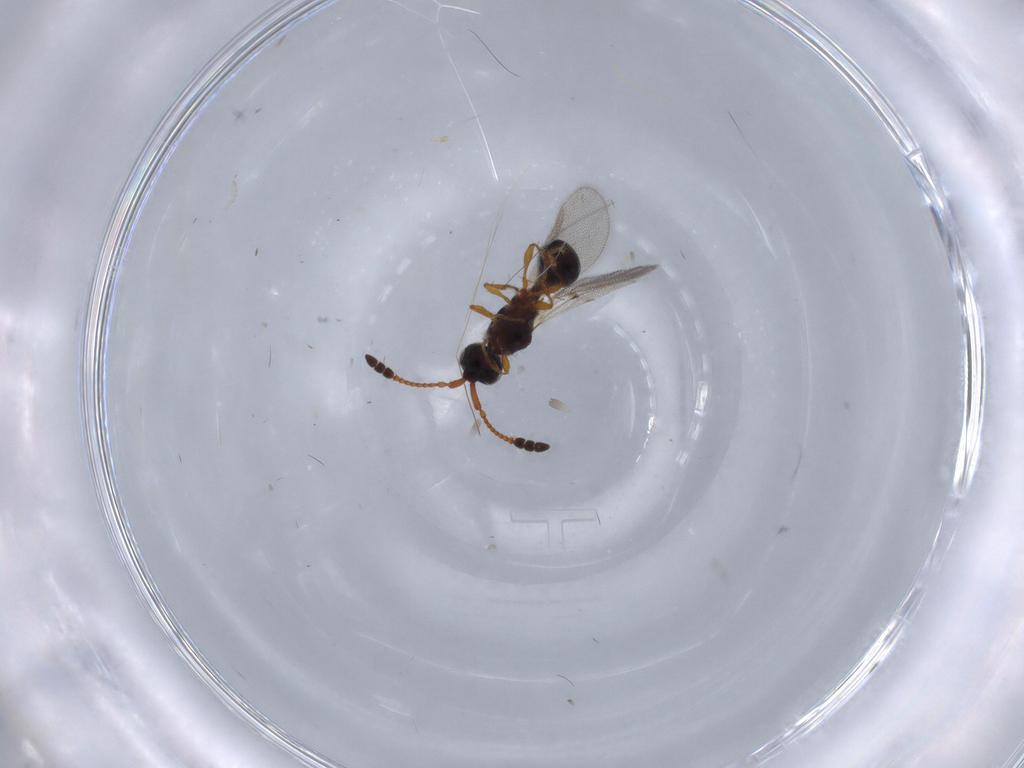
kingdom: Animalia
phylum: Arthropoda
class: Insecta
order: Hymenoptera
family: Diapriidae
